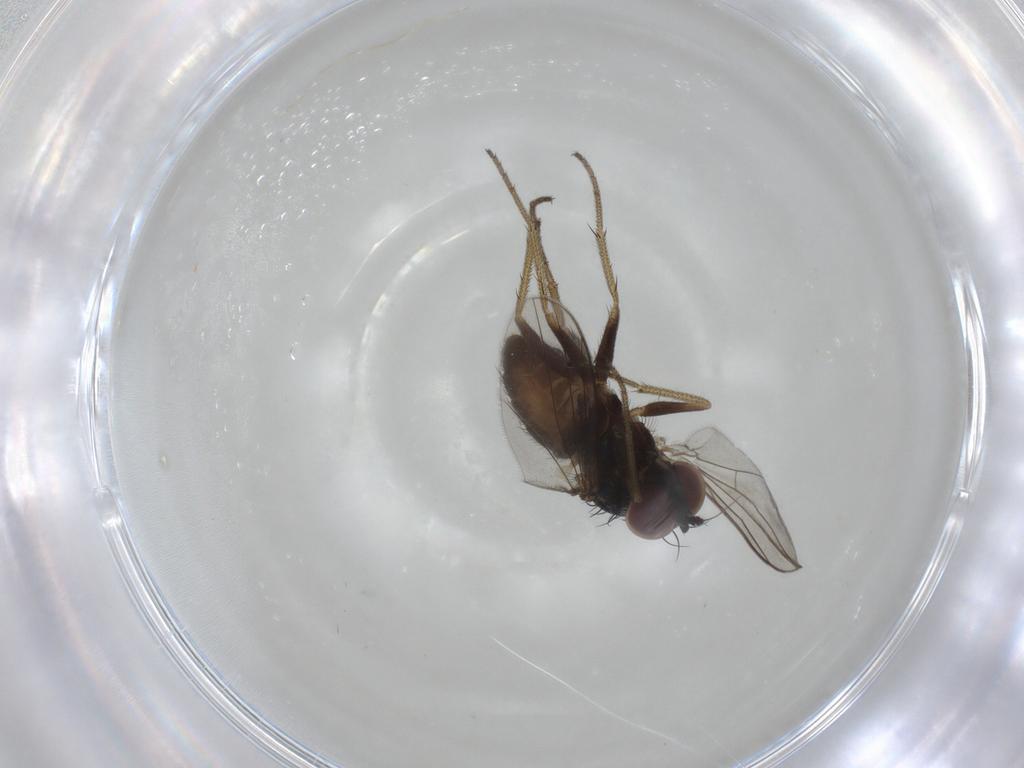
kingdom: Animalia
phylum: Arthropoda
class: Insecta
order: Diptera
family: Dolichopodidae
